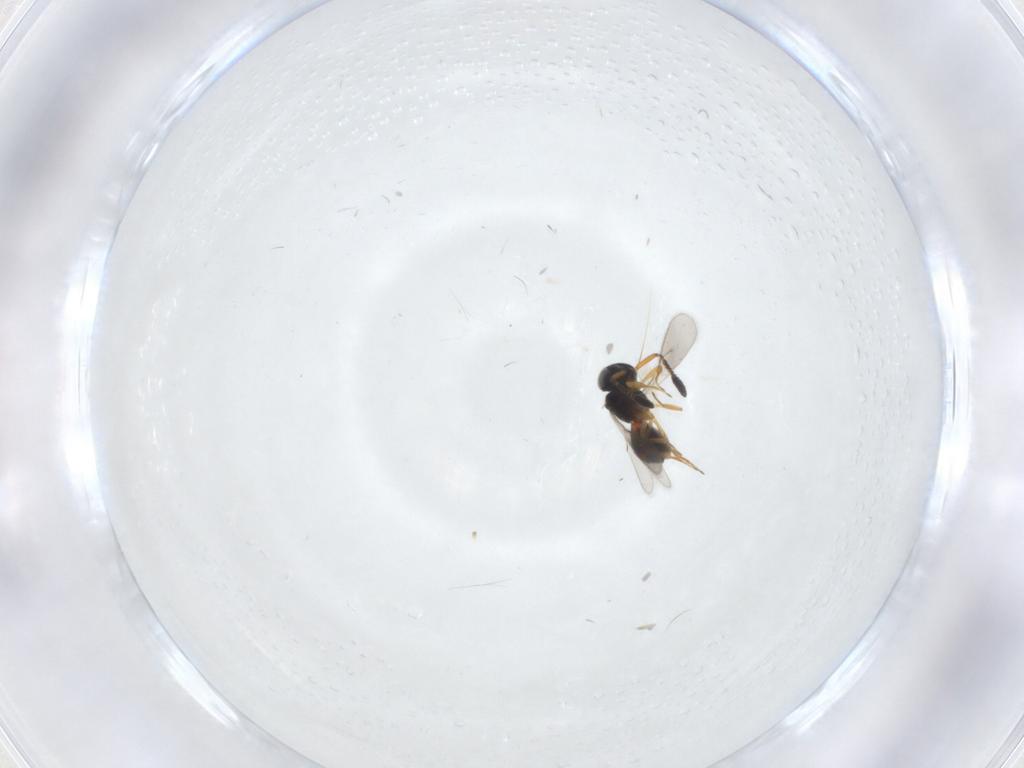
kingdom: Animalia
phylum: Arthropoda
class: Insecta
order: Hymenoptera
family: Scelionidae
